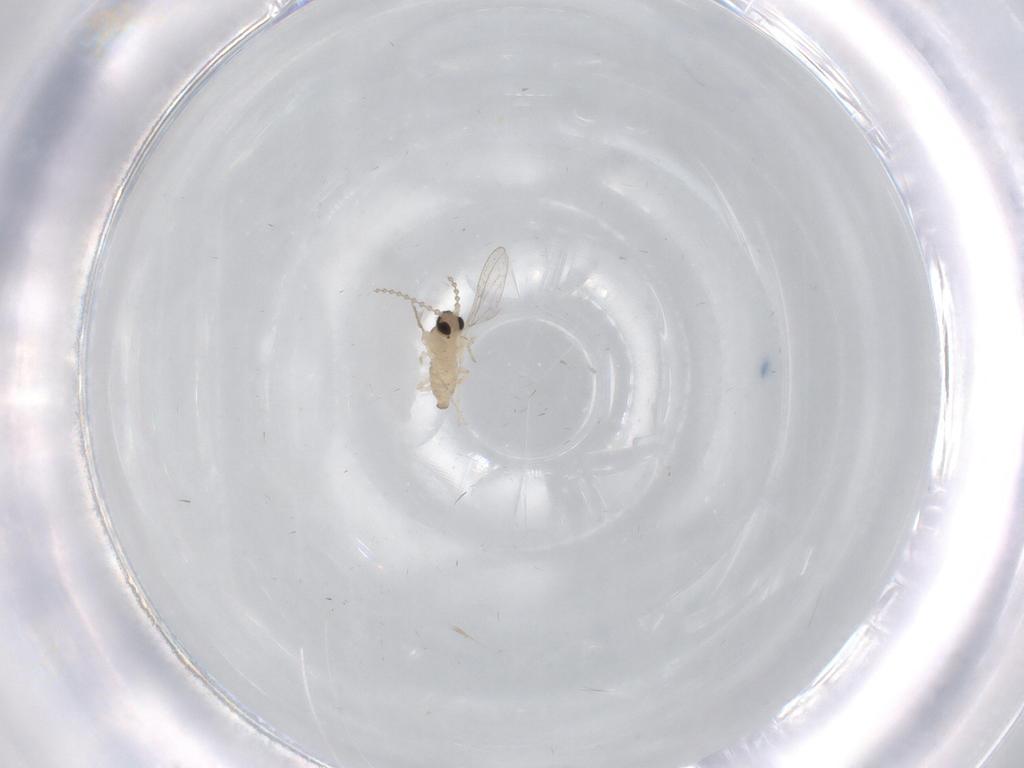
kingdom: Animalia
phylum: Arthropoda
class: Insecta
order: Diptera
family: Cecidomyiidae
